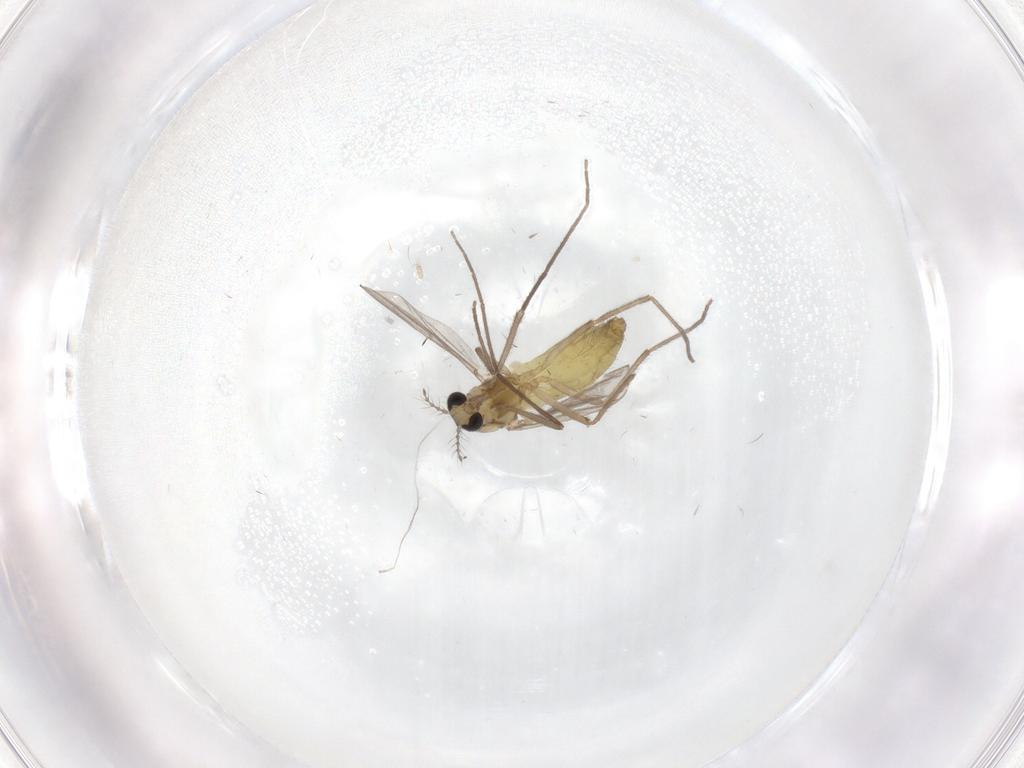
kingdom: Animalia
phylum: Arthropoda
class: Insecta
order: Diptera
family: Chironomidae
